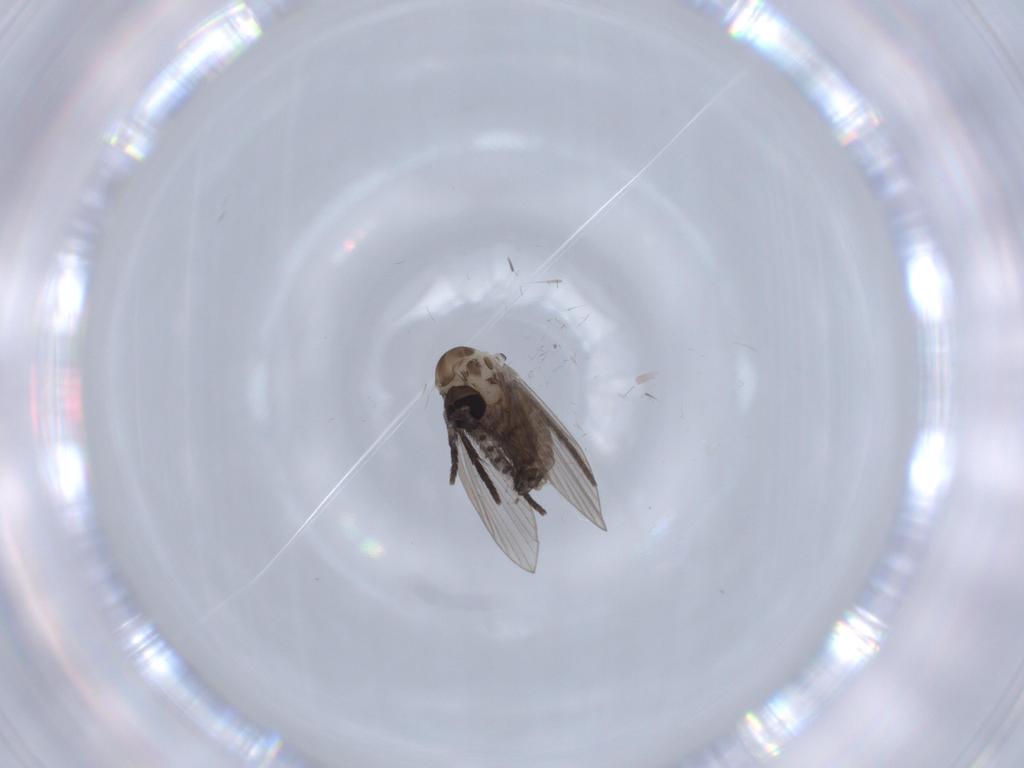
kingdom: Animalia
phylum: Arthropoda
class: Insecta
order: Diptera
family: Psychodidae
